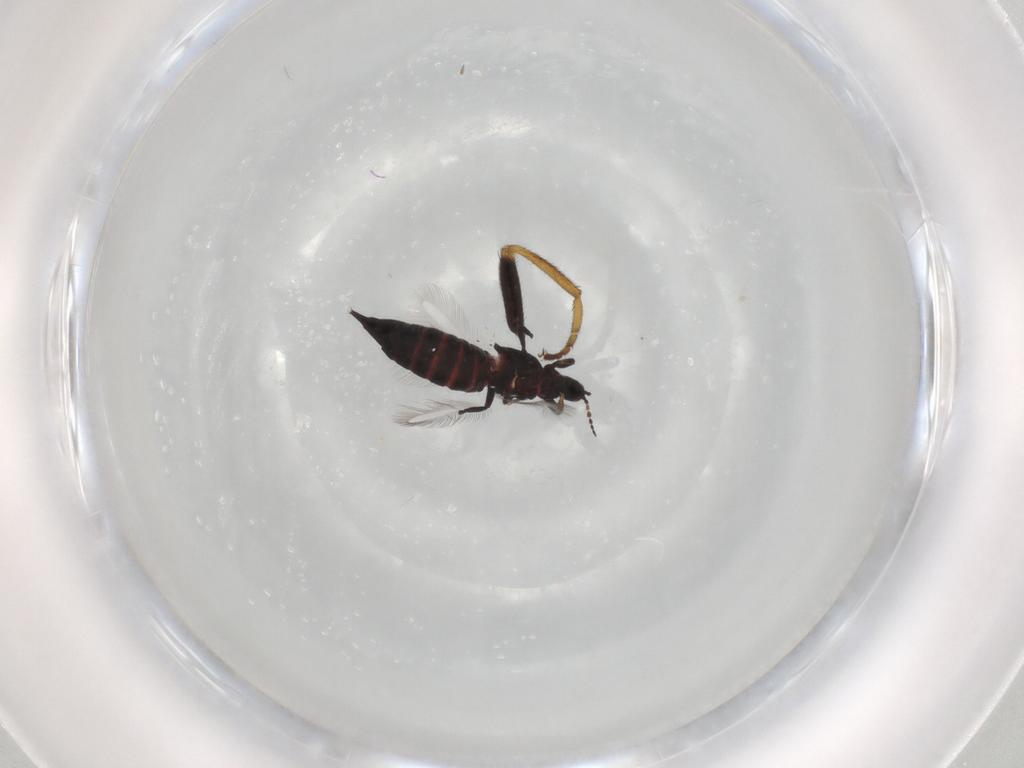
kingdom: Animalia
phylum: Arthropoda
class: Insecta
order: Thysanoptera
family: Phlaeothripidae
